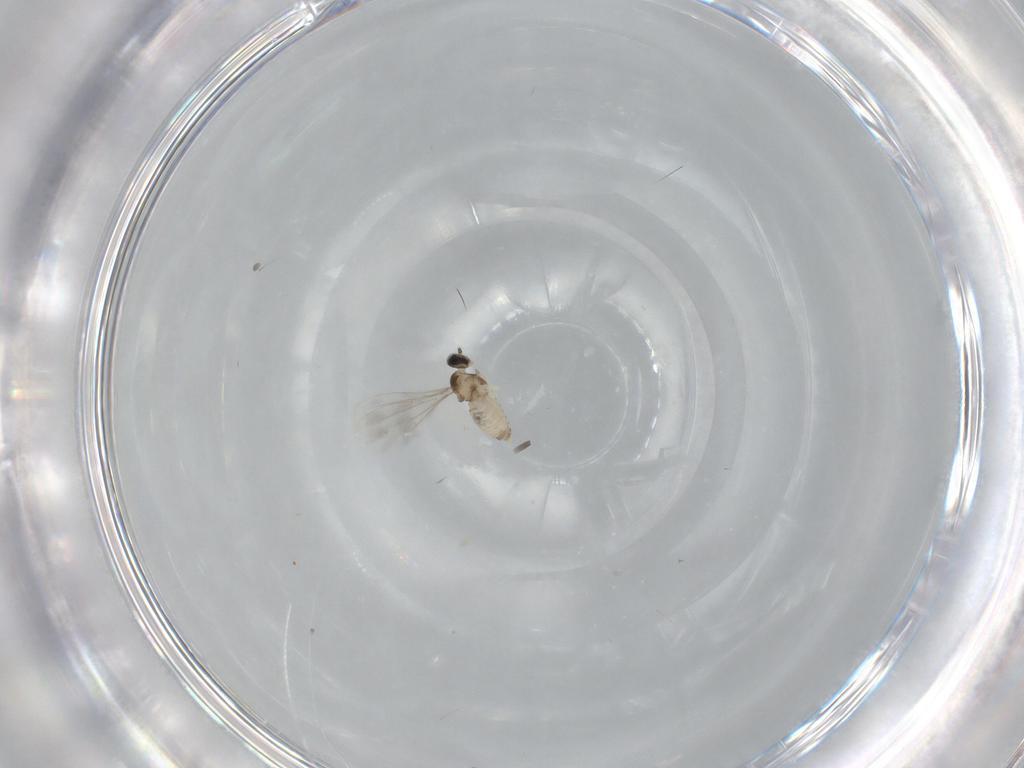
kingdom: Animalia
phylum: Arthropoda
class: Insecta
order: Diptera
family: Cecidomyiidae
